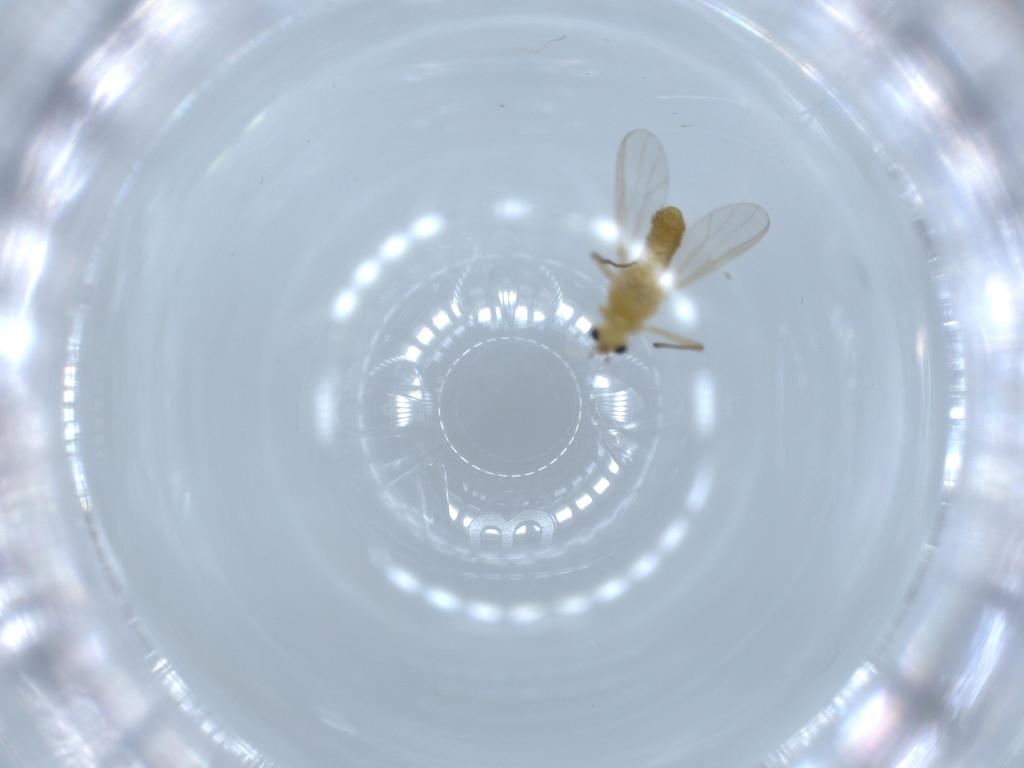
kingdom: Animalia
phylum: Arthropoda
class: Insecta
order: Diptera
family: Chironomidae
